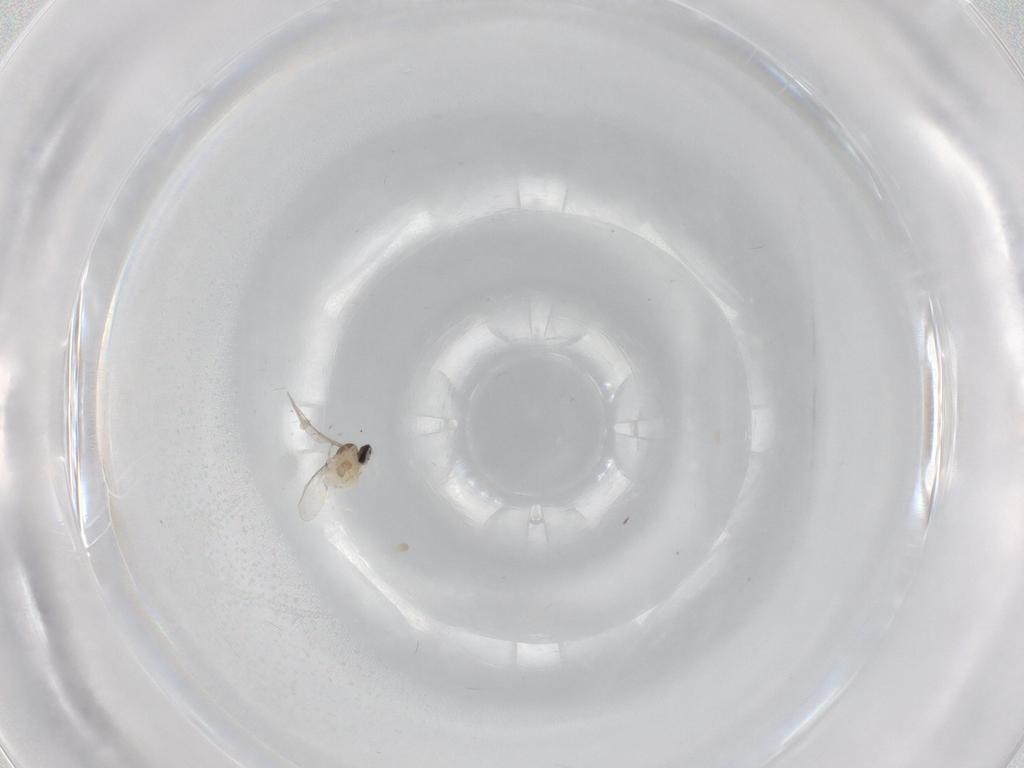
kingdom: Animalia
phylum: Arthropoda
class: Insecta
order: Diptera
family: Cecidomyiidae
